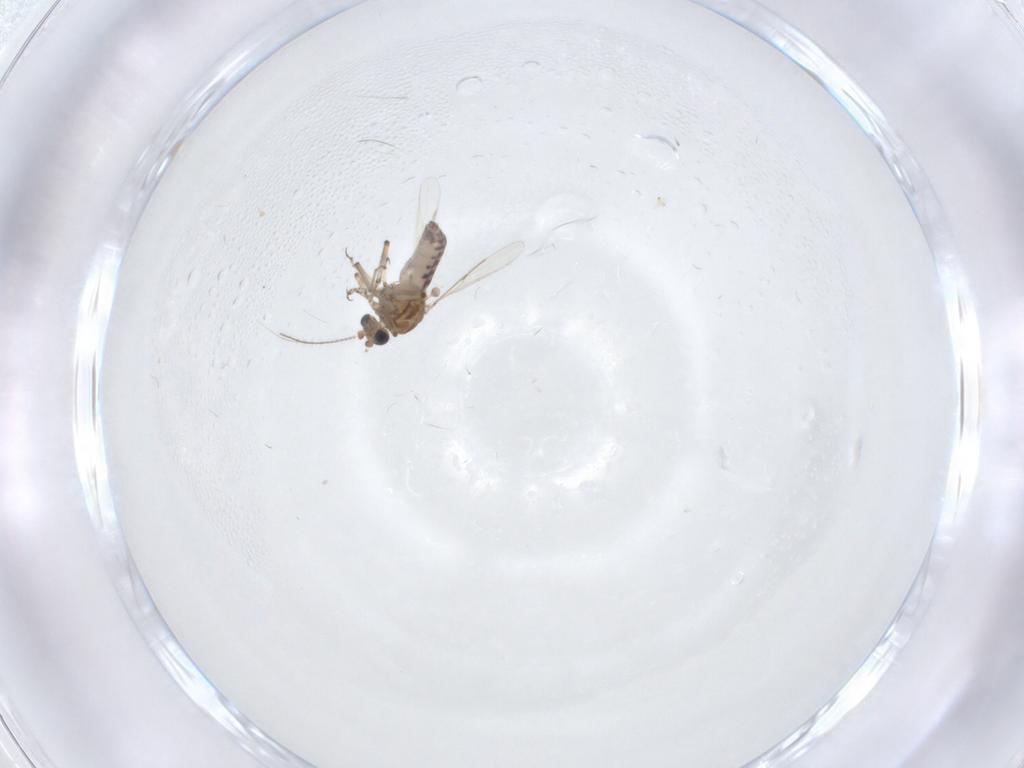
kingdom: Animalia
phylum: Arthropoda
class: Insecta
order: Diptera
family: Ceratopogonidae
